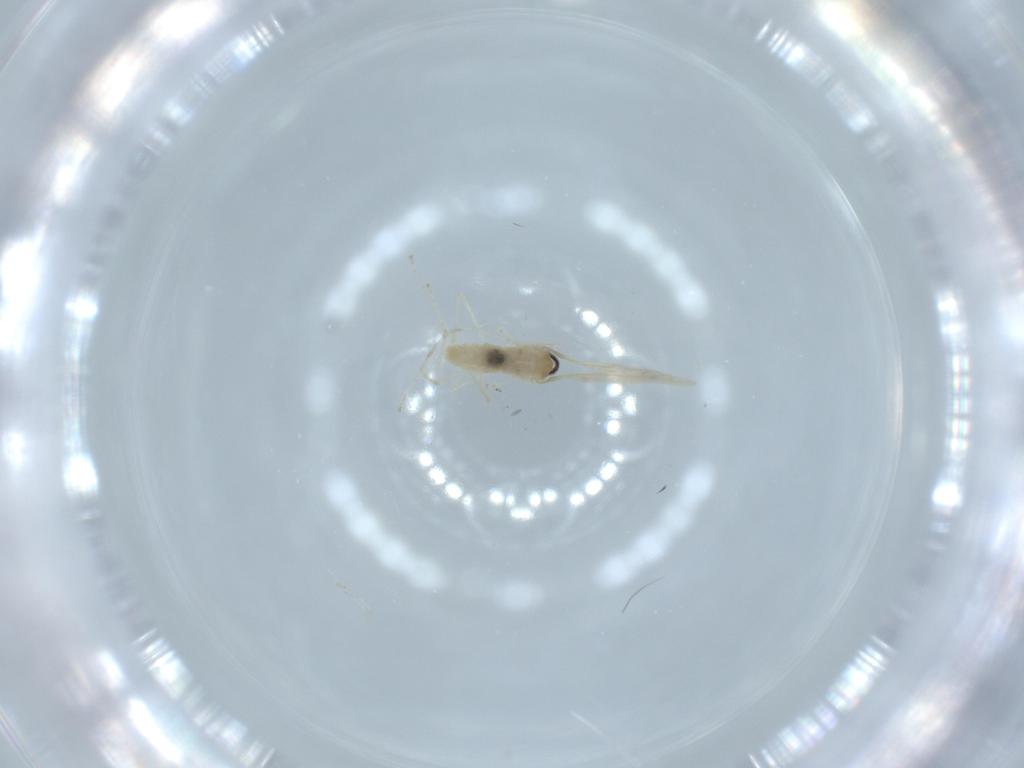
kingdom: Animalia
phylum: Arthropoda
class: Insecta
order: Diptera
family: Cecidomyiidae
